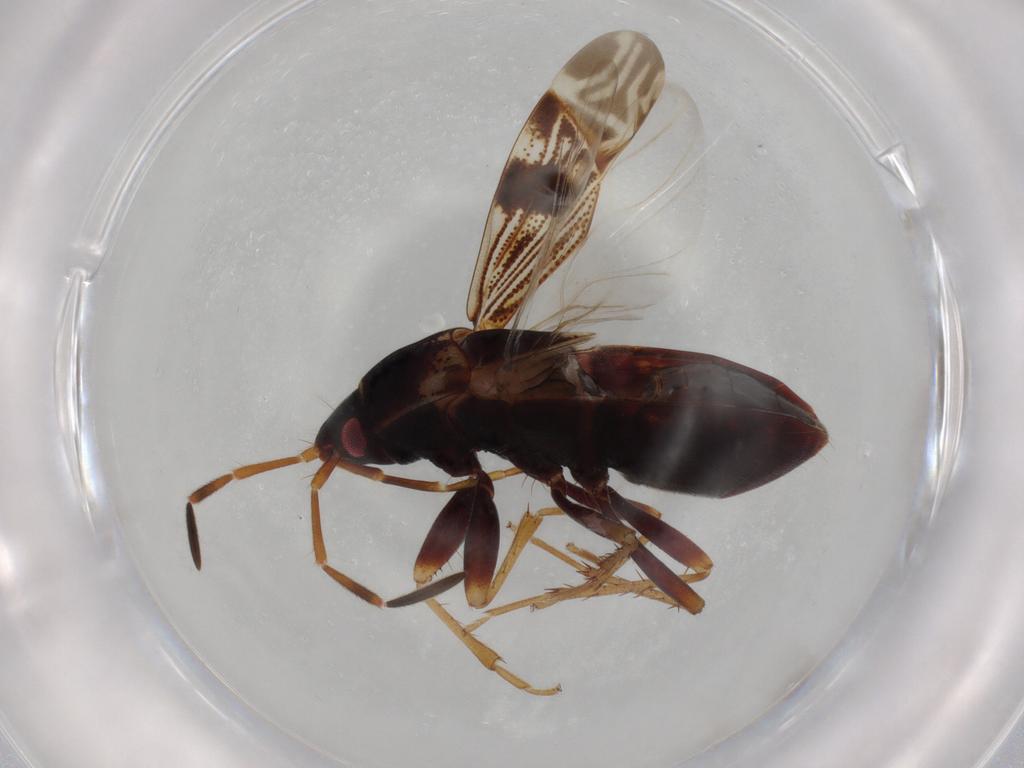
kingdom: Animalia
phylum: Arthropoda
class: Insecta
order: Hemiptera
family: Rhyparochromidae
